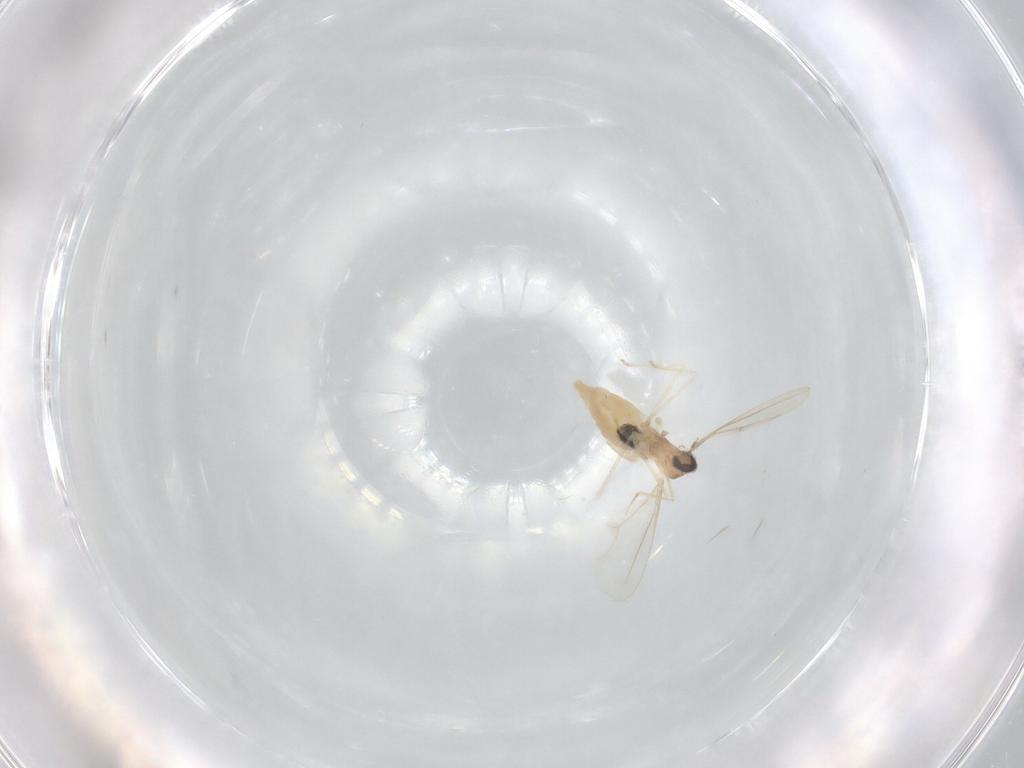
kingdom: Animalia
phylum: Arthropoda
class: Insecta
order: Diptera
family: Cecidomyiidae
